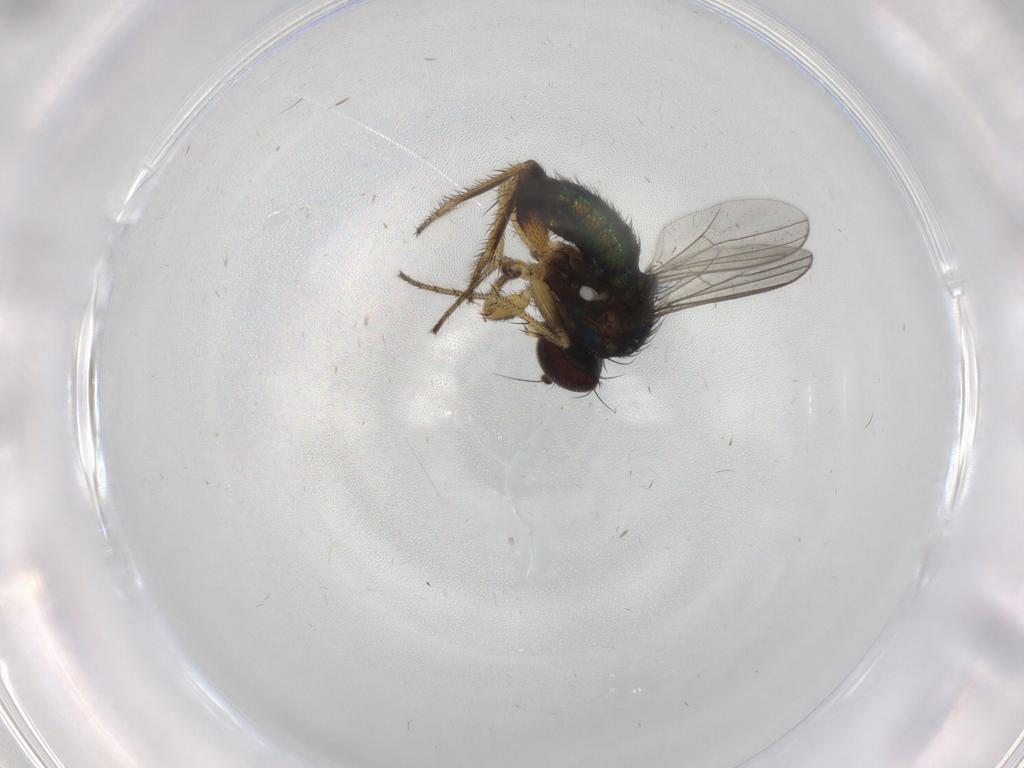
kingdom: Animalia
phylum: Arthropoda
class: Insecta
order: Diptera
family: Dolichopodidae
